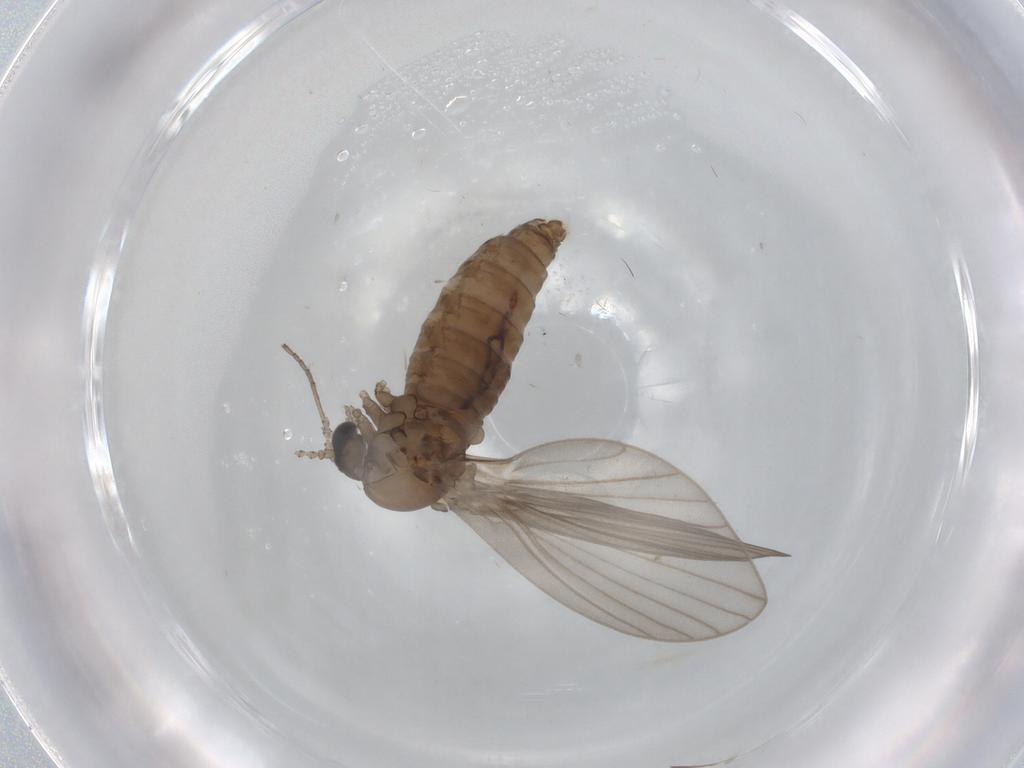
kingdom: Animalia
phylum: Arthropoda
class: Insecta
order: Diptera
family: Psychodidae
